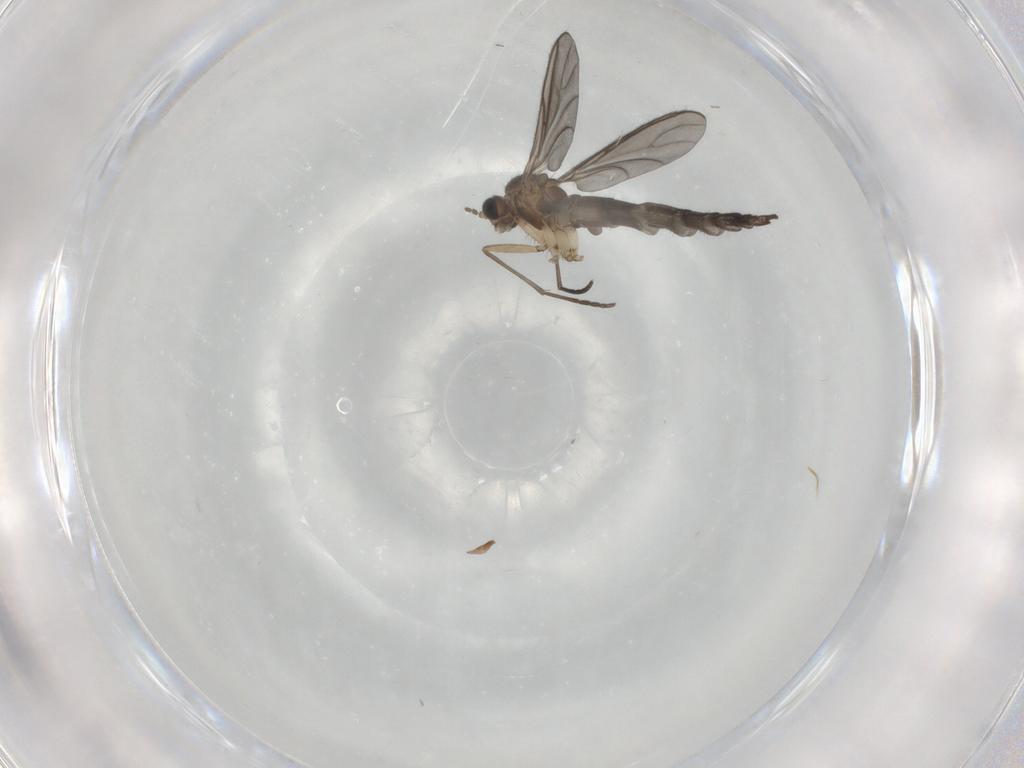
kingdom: Animalia
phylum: Arthropoda
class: Insecta
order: Diptera
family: Sciaridae
